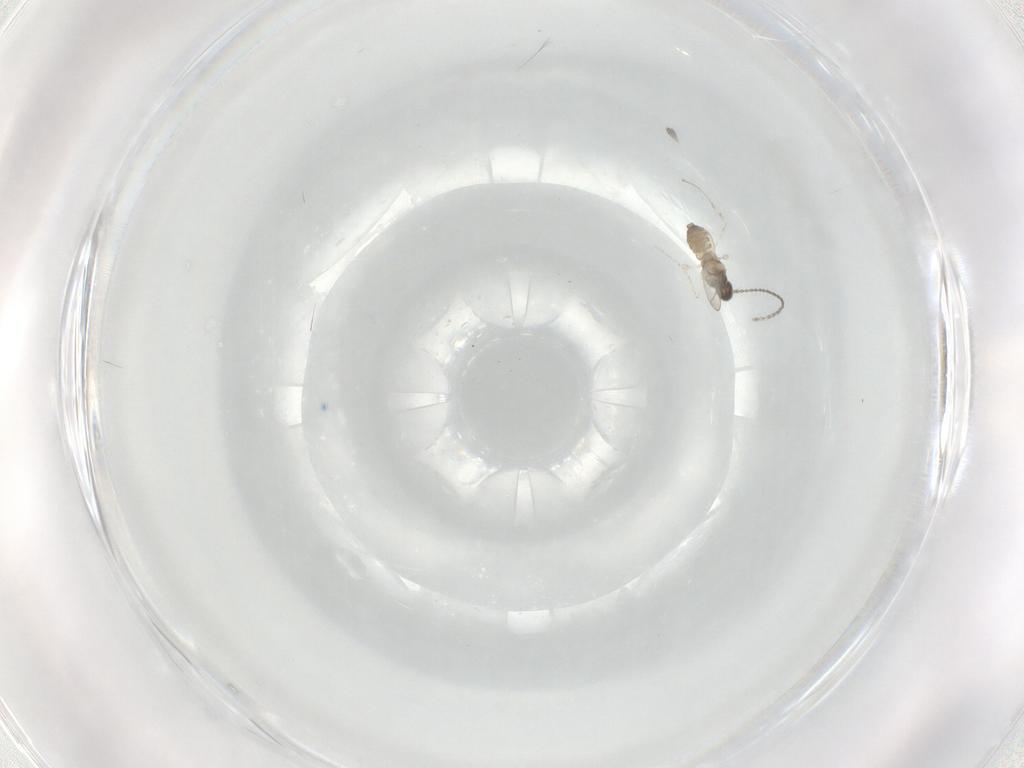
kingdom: Animalia
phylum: Arthropoda
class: Insecta
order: Diptera
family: Cecidomyiidae
